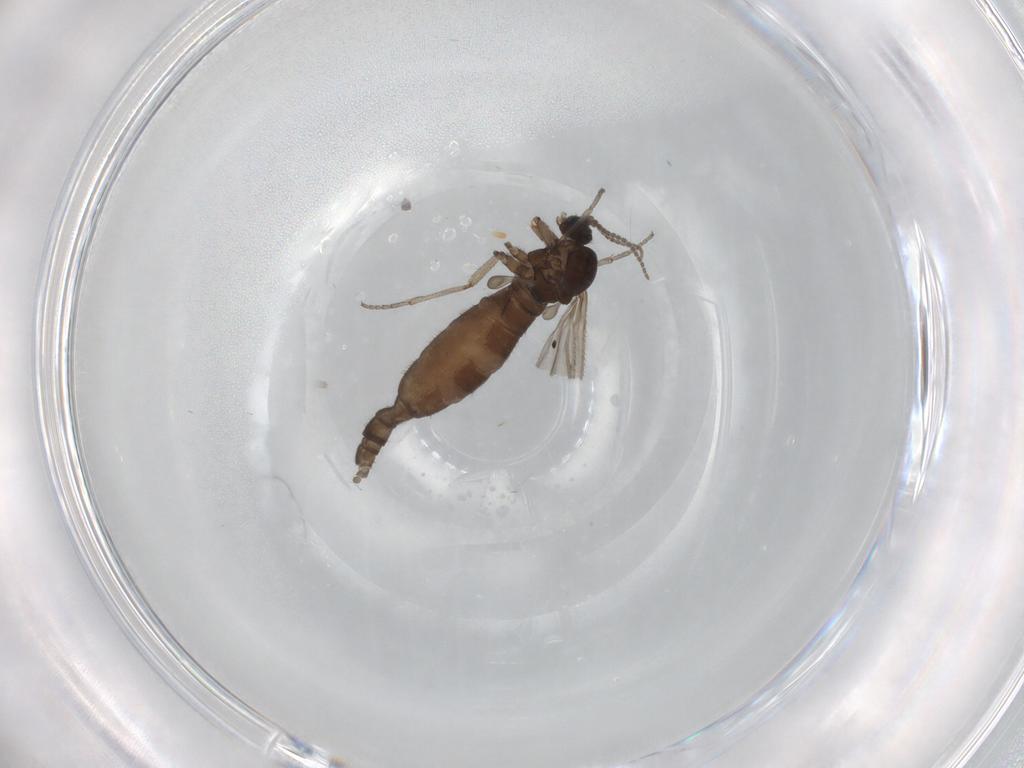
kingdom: Animalia
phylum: Arthropoda
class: Insecta
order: Diptera
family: Sciaridae
